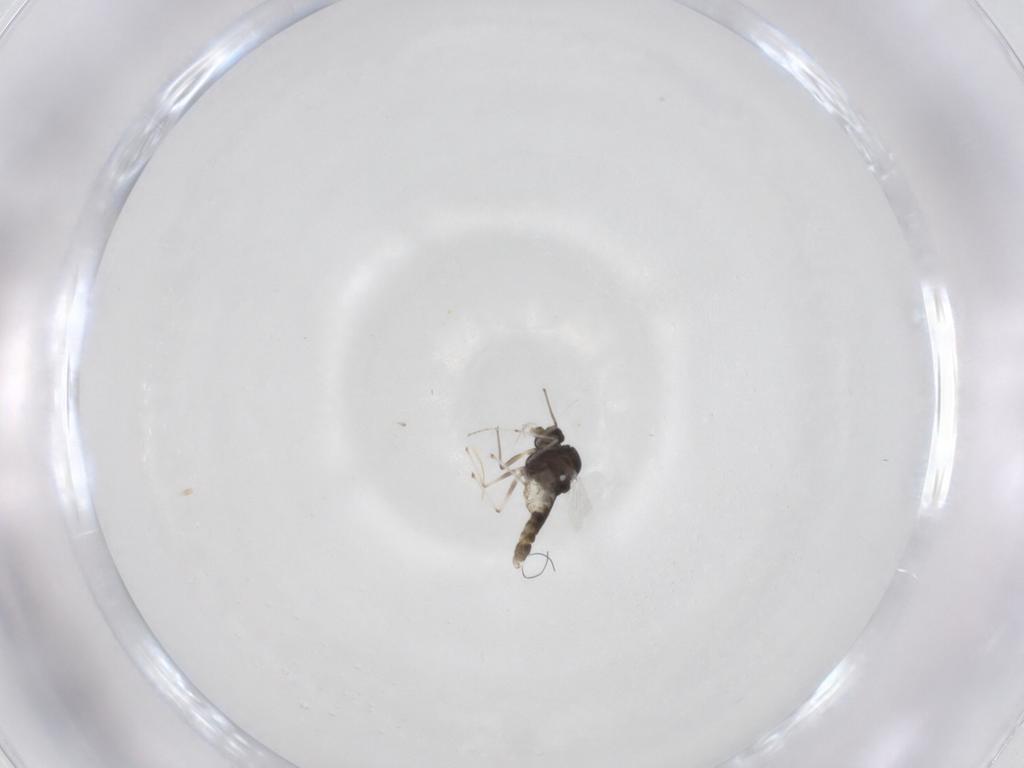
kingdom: Animalia
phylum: Arthropoda
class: Insecta
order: Diptera
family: Chironomidae
